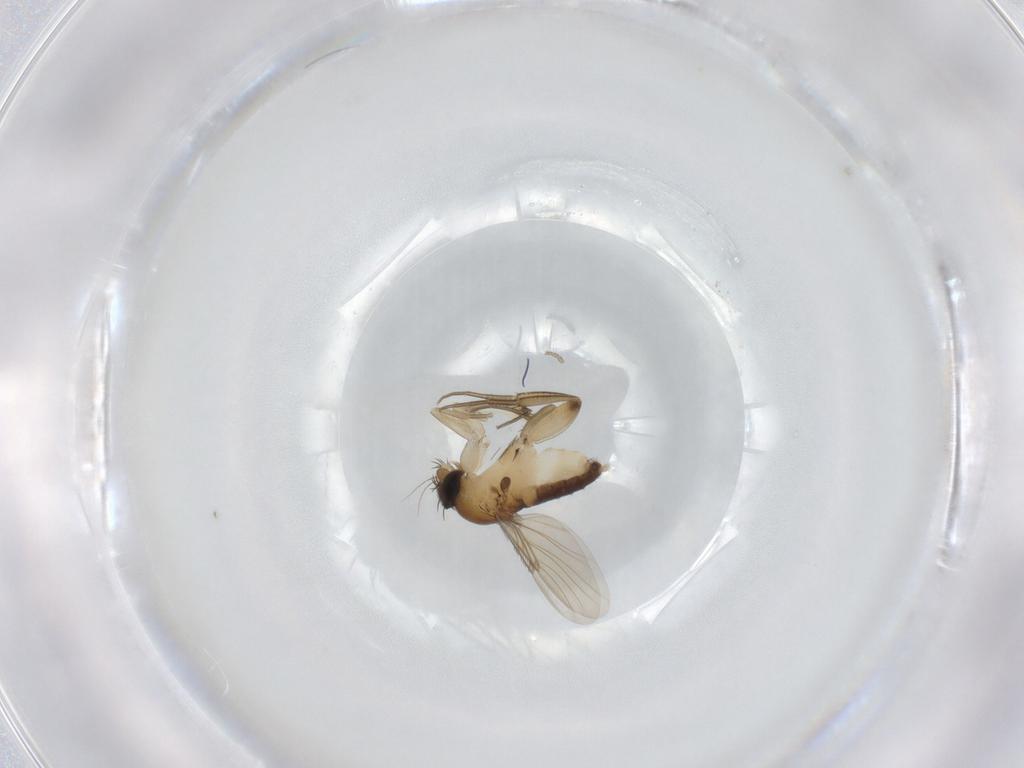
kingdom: Animalia
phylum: Arthropoda
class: Insecta
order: Diptera
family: Phoridae
